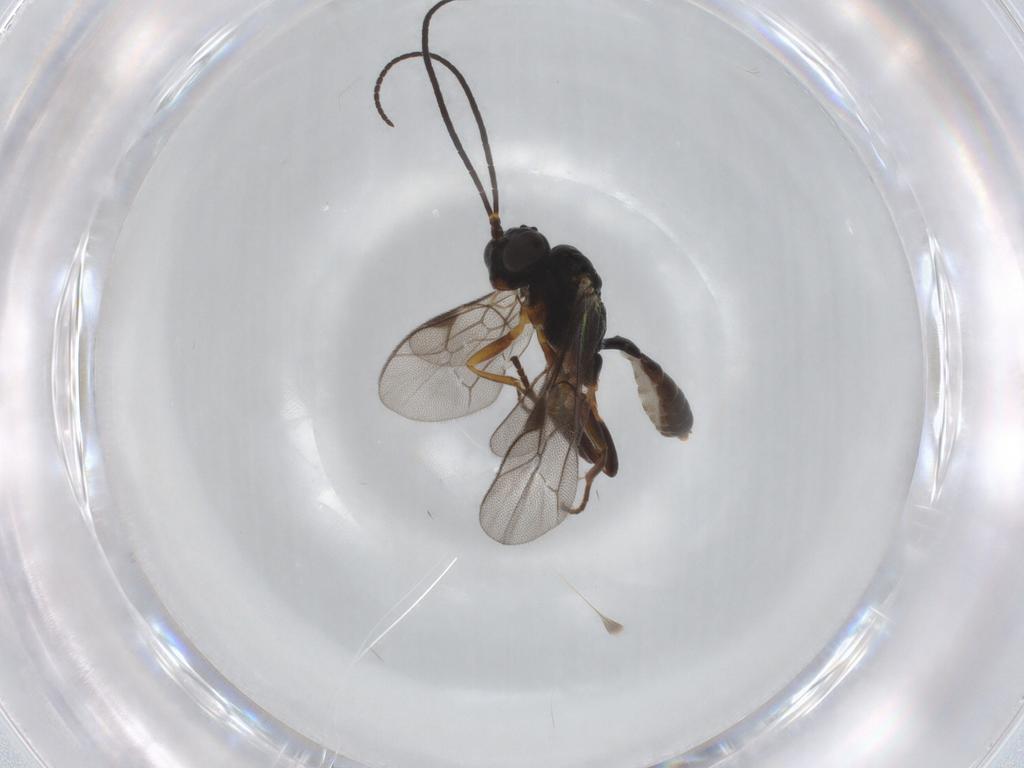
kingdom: Animalia
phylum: Arthropoda
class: Insecta
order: Hymenoptera
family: Ichneumonidae
